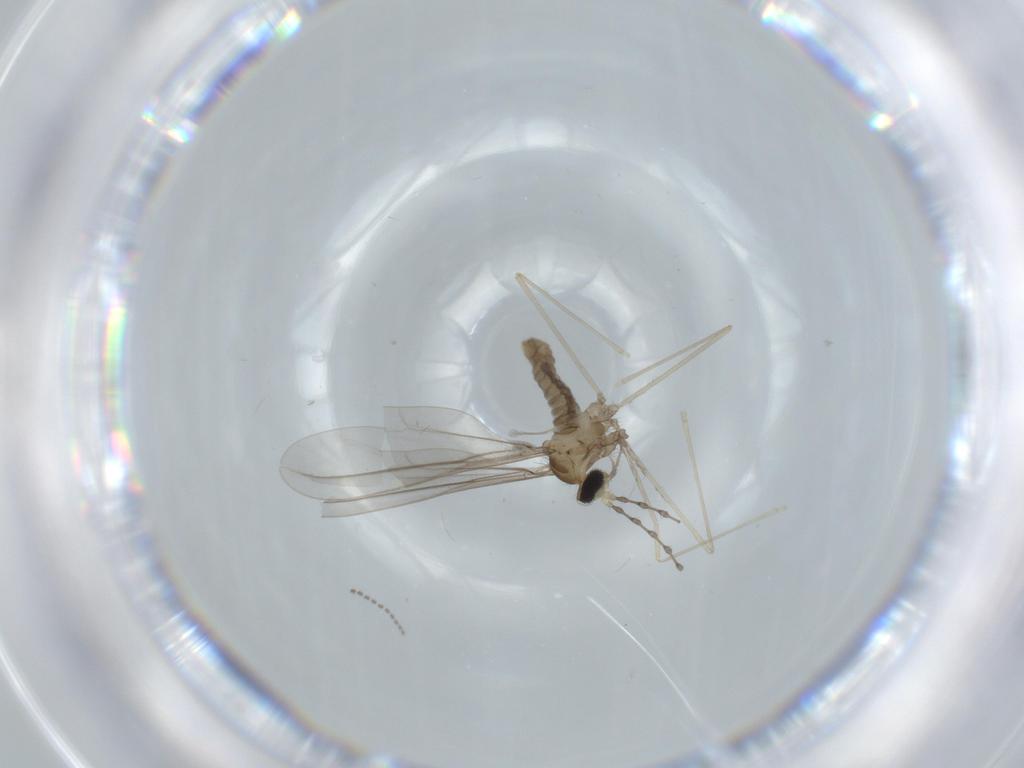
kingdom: Animalia
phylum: Arthropoda
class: Insecta
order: Diptera
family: Cecidomyiidae
